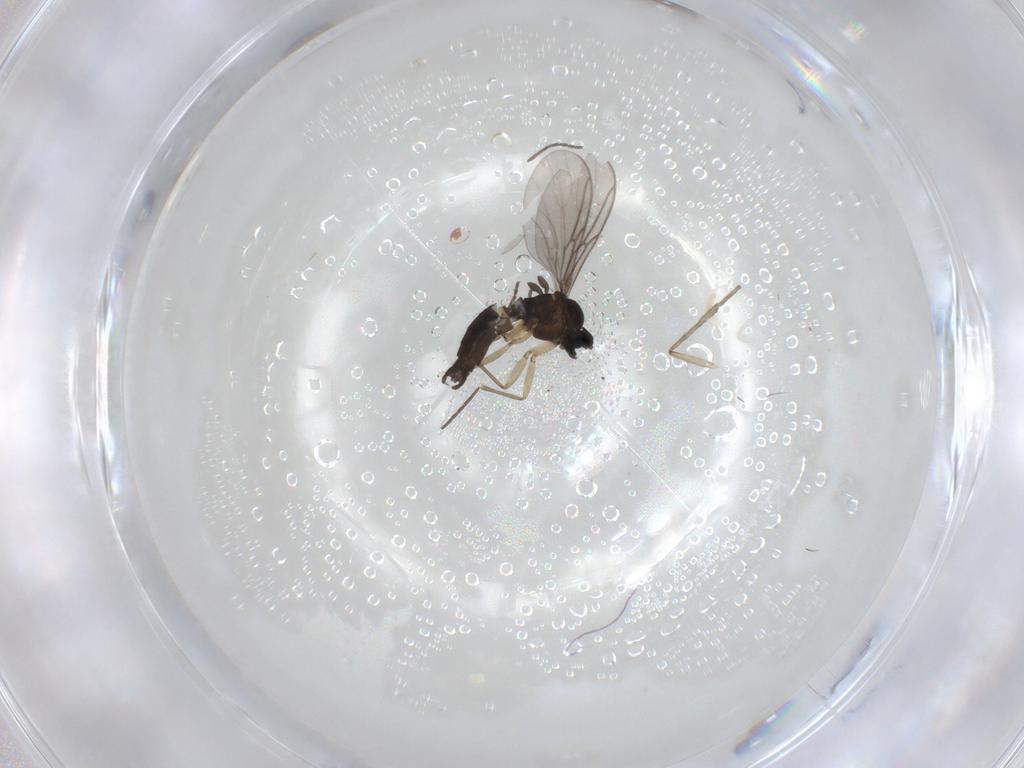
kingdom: Animalia
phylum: Arthropoda
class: Insecta
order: Diptera
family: Sciaridae
